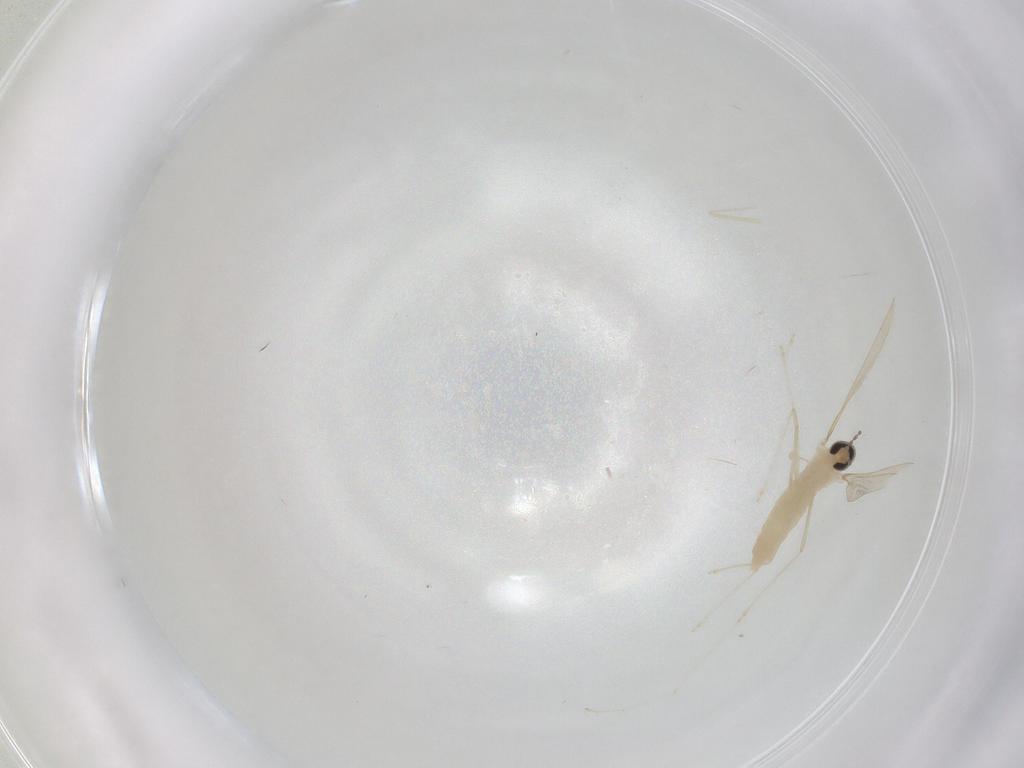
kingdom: Animalia
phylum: Arthropoda
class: Insecta
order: Diptera
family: Cecidomyiidae
